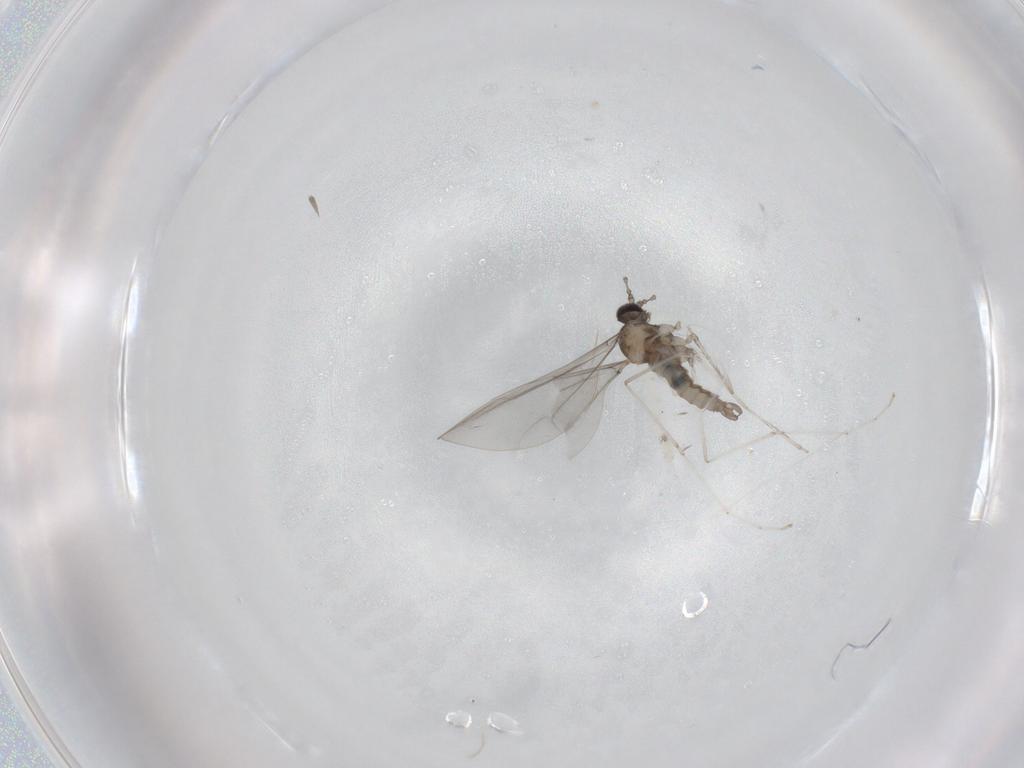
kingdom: Animalia
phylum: Arthropoda
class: Insecta
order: Diptera
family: Cecidomyiidae
